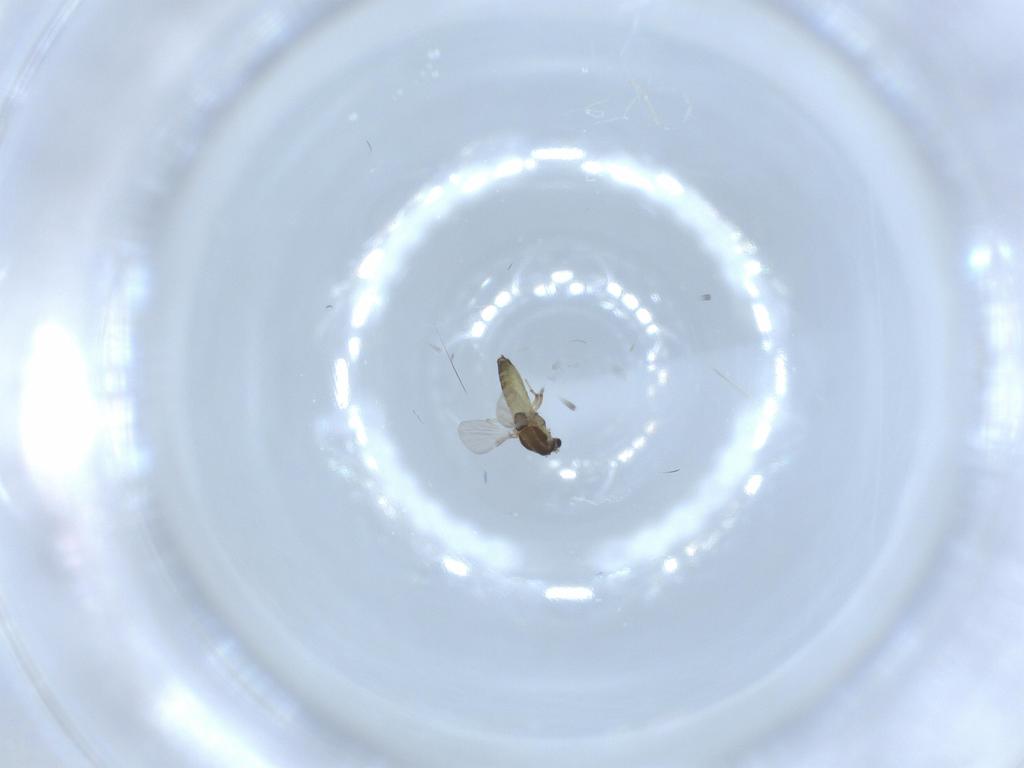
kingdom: Animalia
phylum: Arthropoda
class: Insecta
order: Diptera
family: Chironomidae
